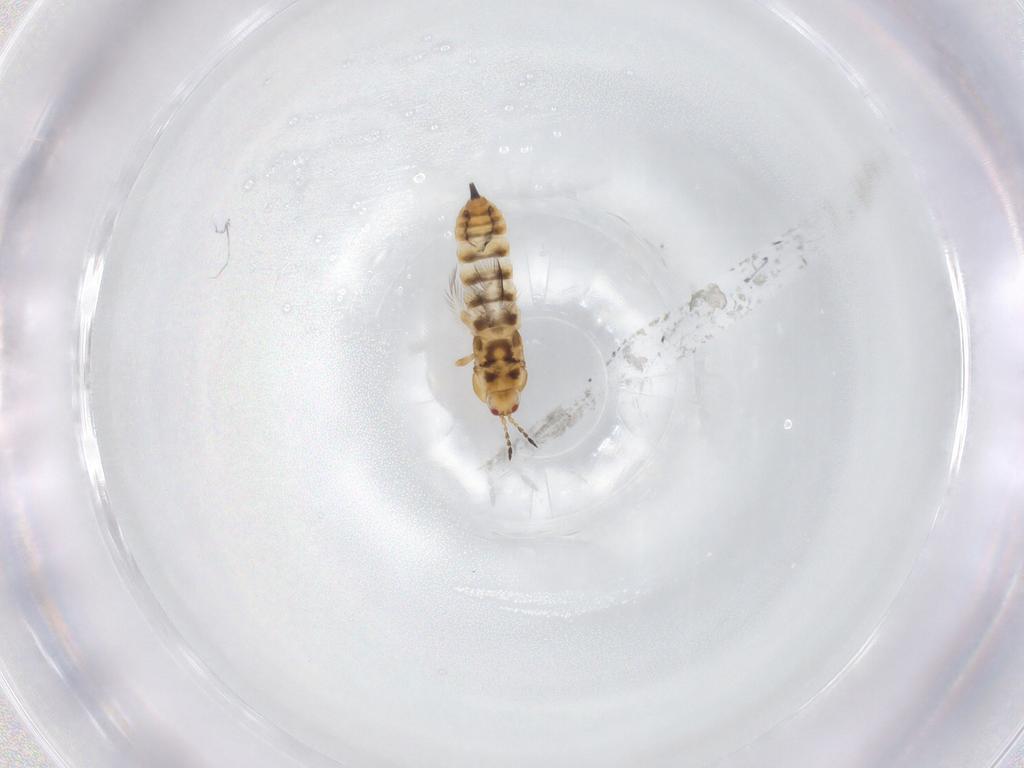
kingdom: Animalia
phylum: Arthropoda
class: Insecta
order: Thysanoptera
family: Phlaeothripidae
